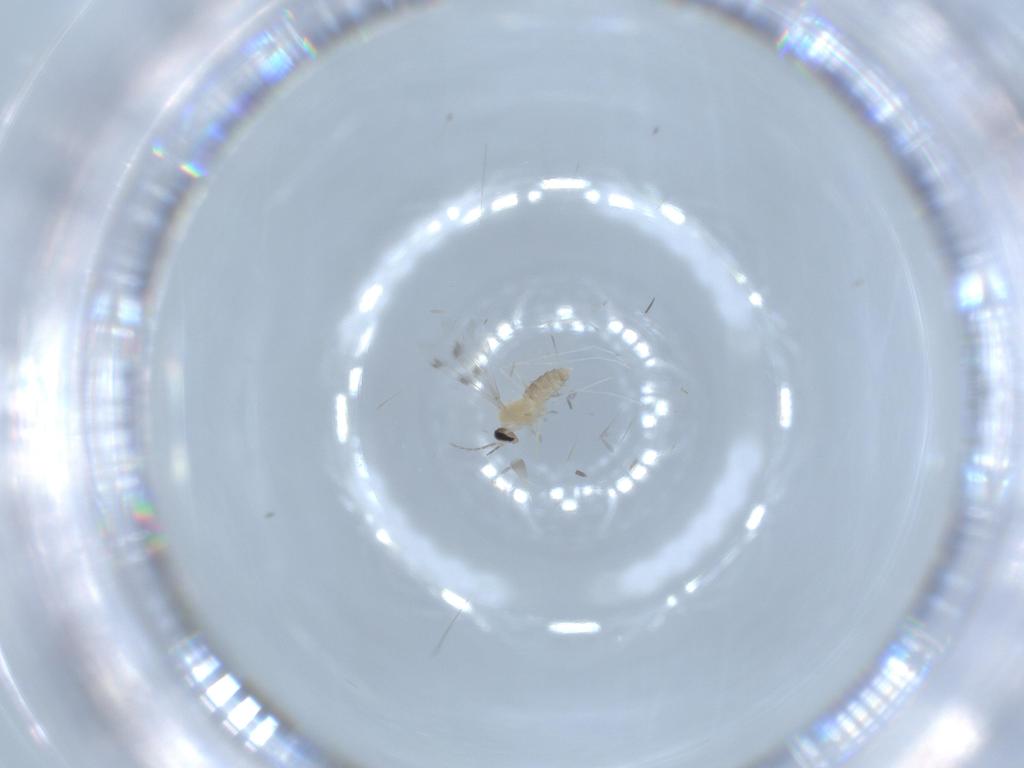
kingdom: Animalia
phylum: Arthropoda
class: Insecta
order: Diptera
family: Cecidomyiidae
